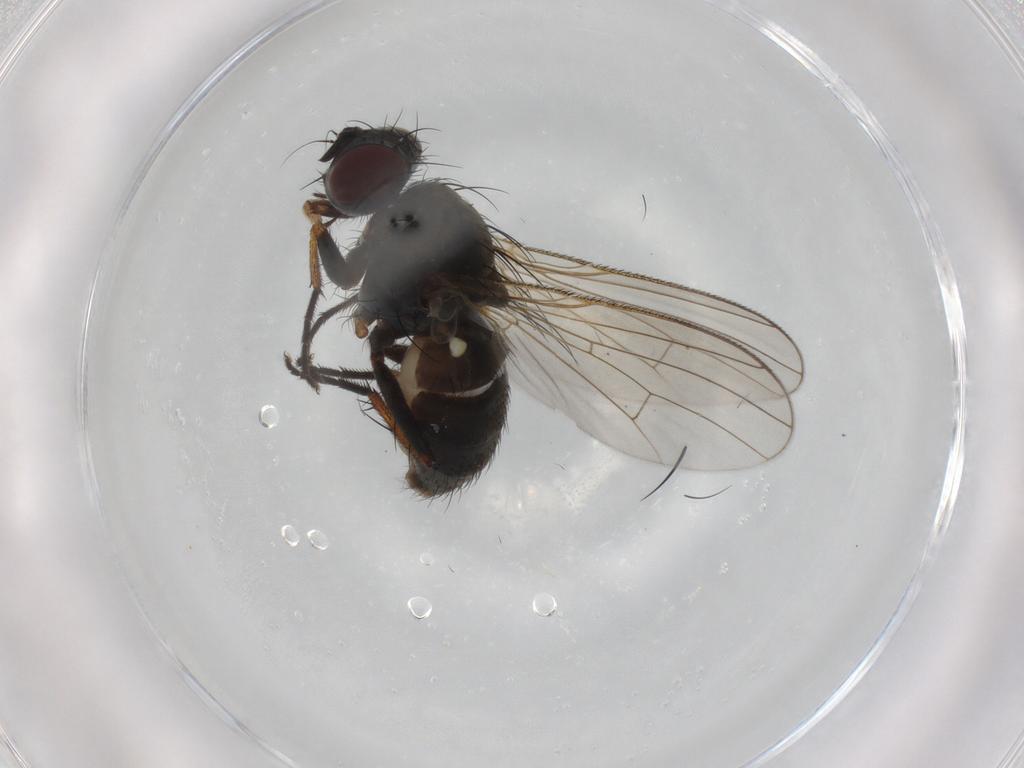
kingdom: Animalia
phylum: Arthropoda
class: Insecta
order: Diptera
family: Muscidae
